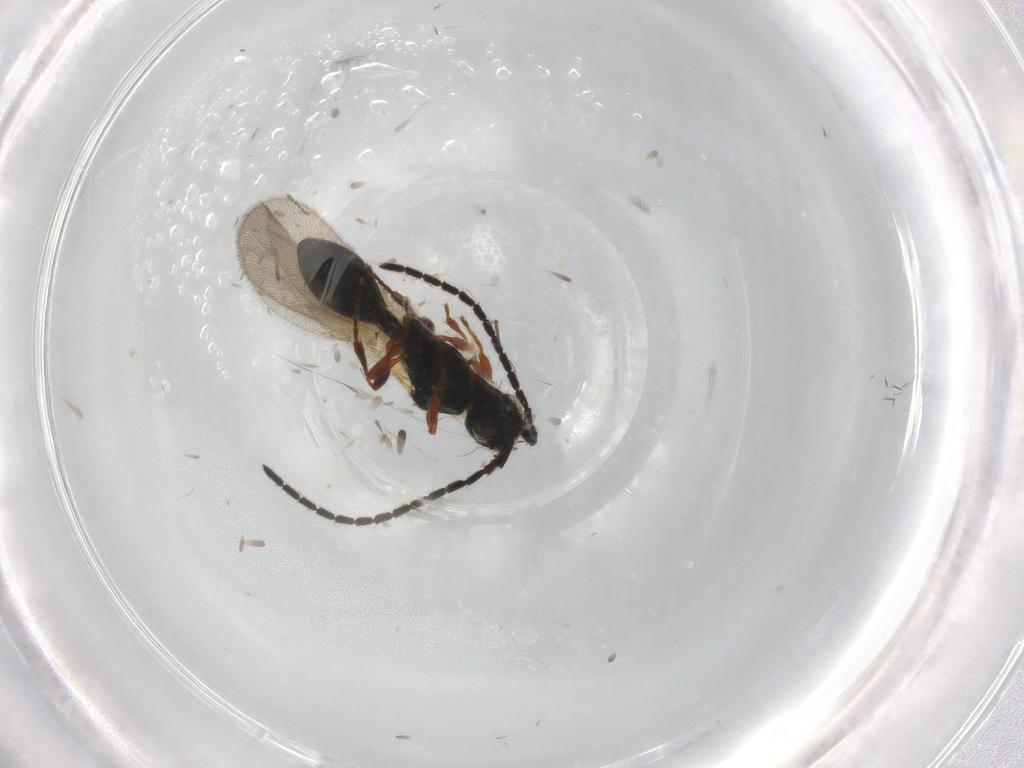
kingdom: Animalia
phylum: Arthropoda
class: Insecta
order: Hymenoptera
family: Diapriidae
